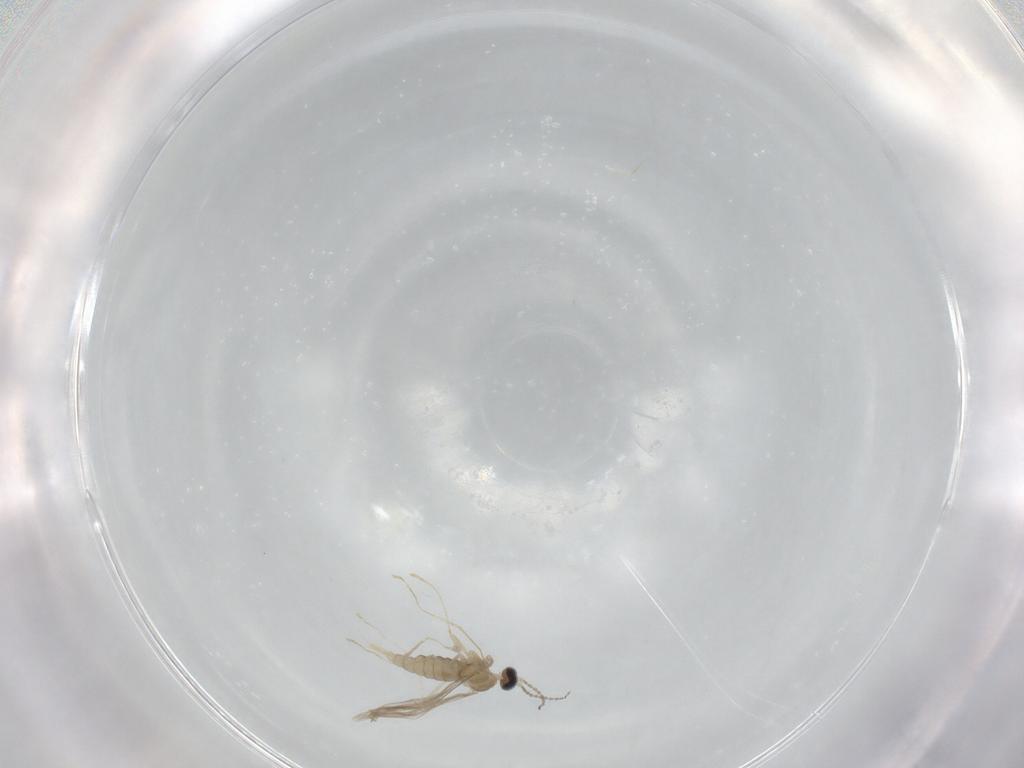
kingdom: Animalia
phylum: Arthropoda
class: Insecta
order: Diptera
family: Cecidomyiidae
